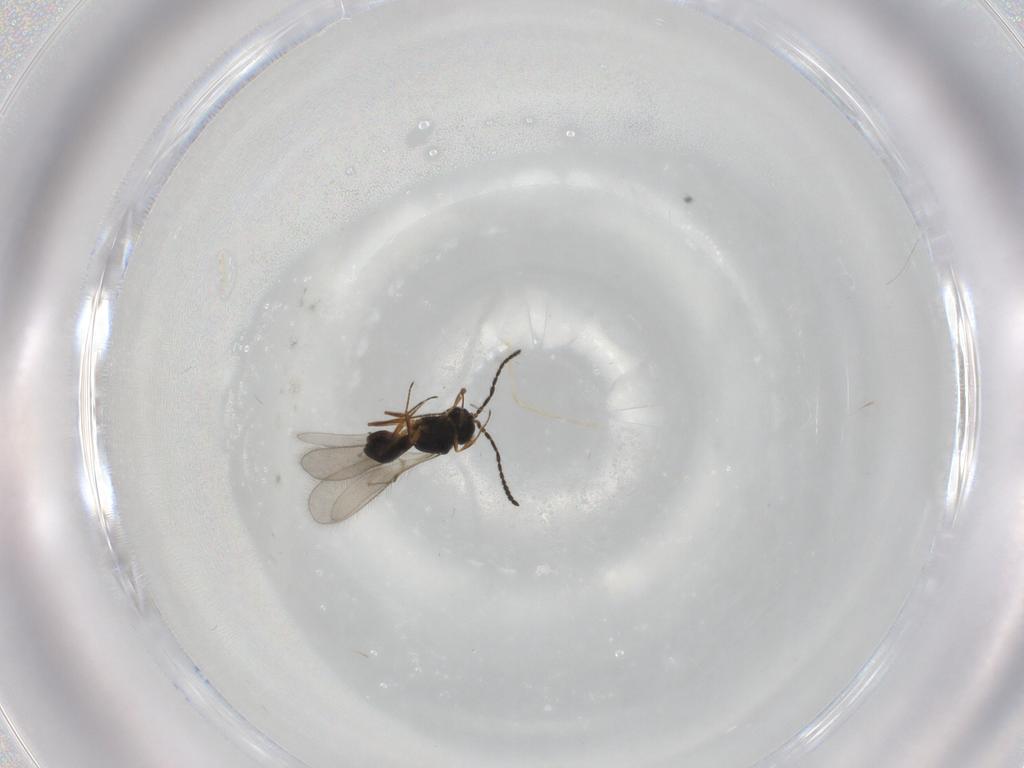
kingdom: Animalia
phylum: Arthropoda
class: Insecta
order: Hymenoptera
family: Scelionidae
